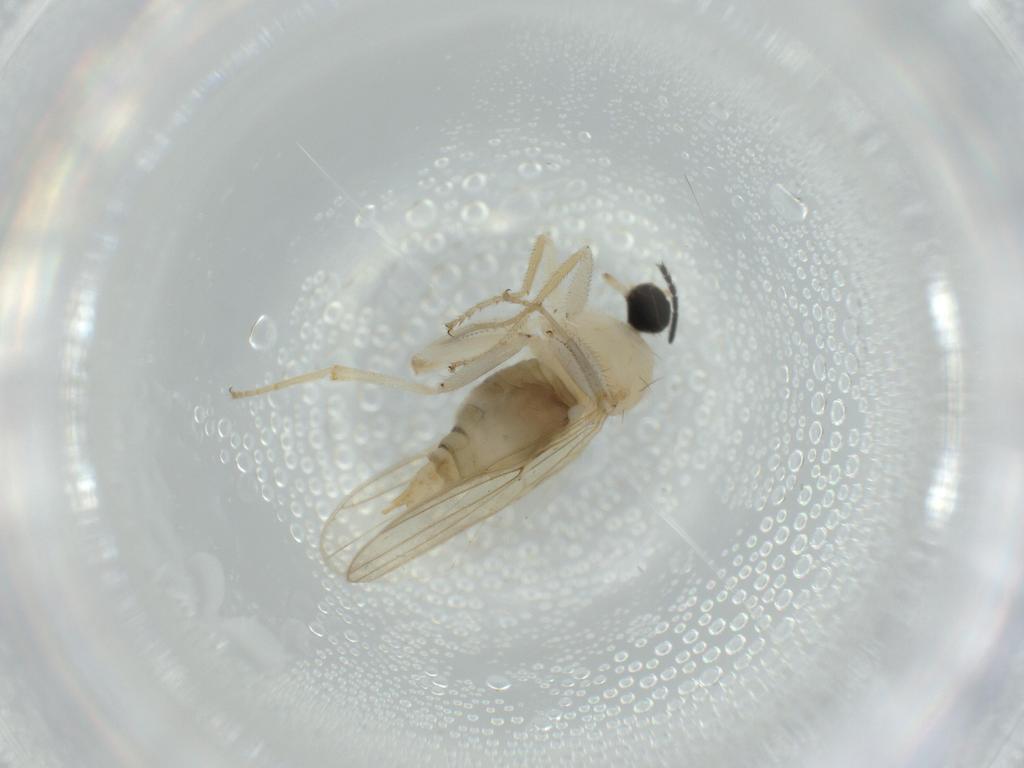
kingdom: Animalia
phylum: Arthropoda
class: Insecta
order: Diptera
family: Hybotidae
